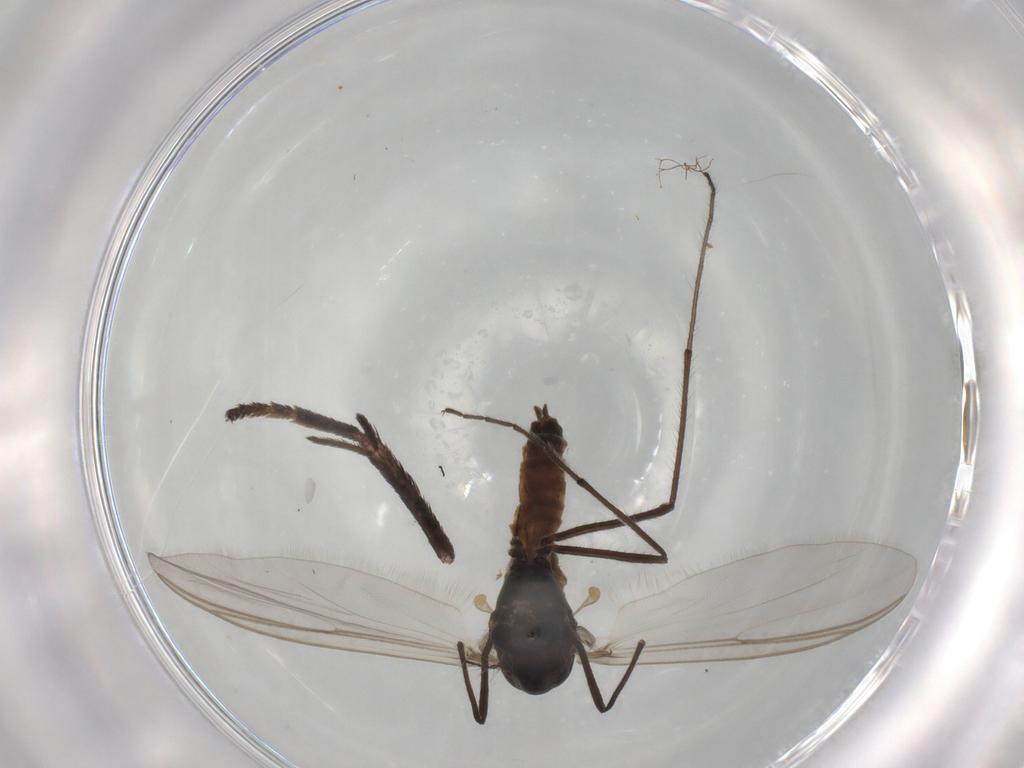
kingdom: Animalia
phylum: Arthropoda
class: Insecta
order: Diptera
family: Chironomidae
